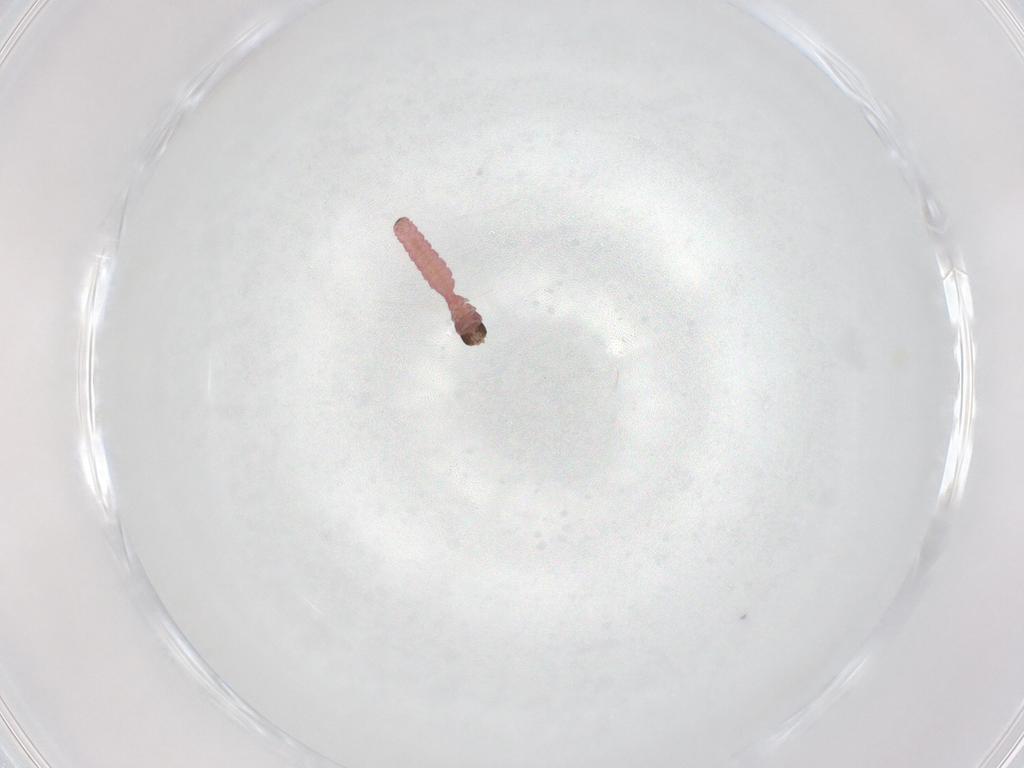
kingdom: Animalia
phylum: Arthropoda
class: Insecta
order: Lepidoptera
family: Oecophoridae
